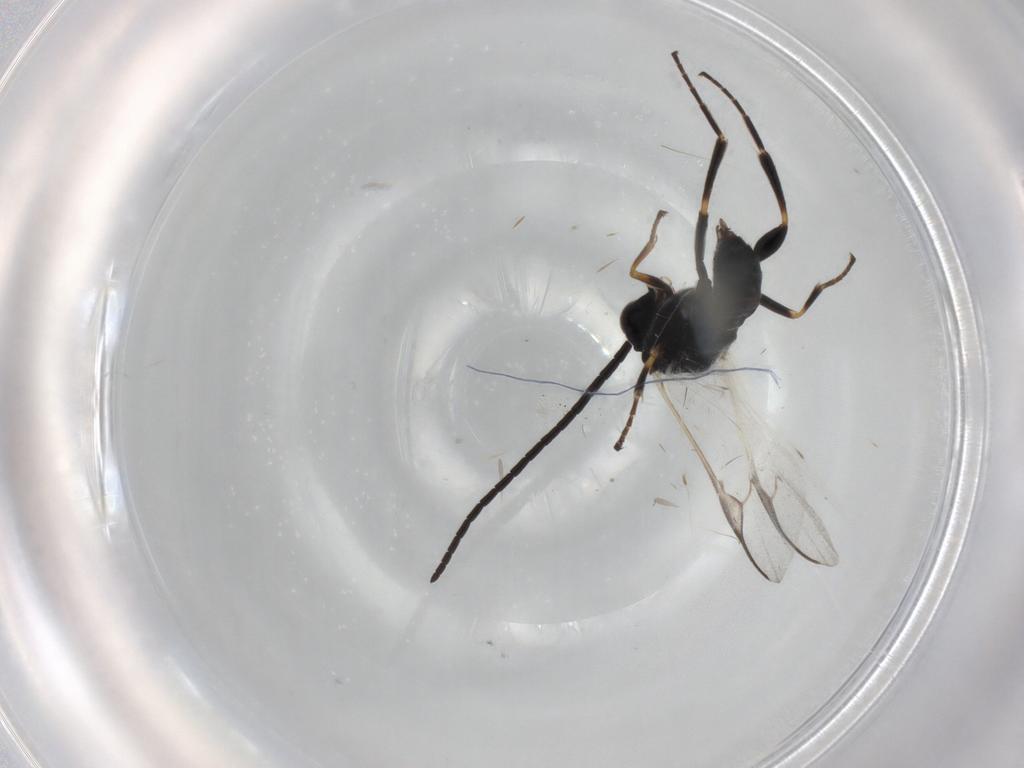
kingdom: Animalia
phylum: Arthropoda
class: Insecta
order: Hymenoptera
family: Braconidae
